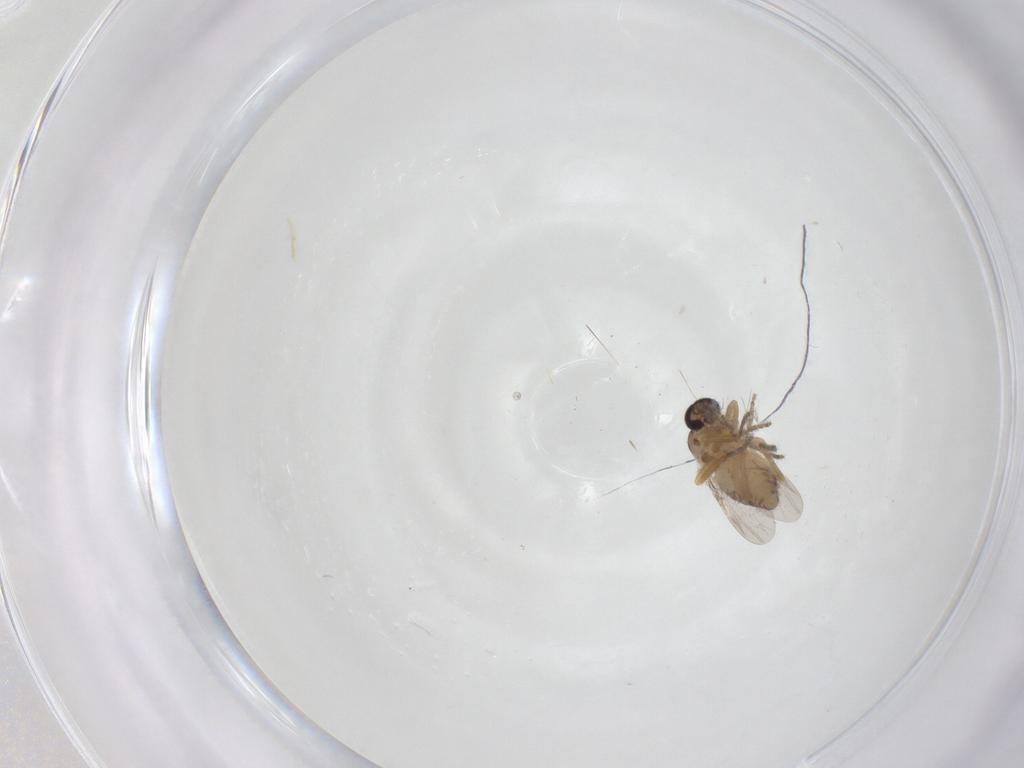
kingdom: Animalia
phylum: Arthropoda
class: Insecta
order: Diptera
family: Ceratopogonidae
